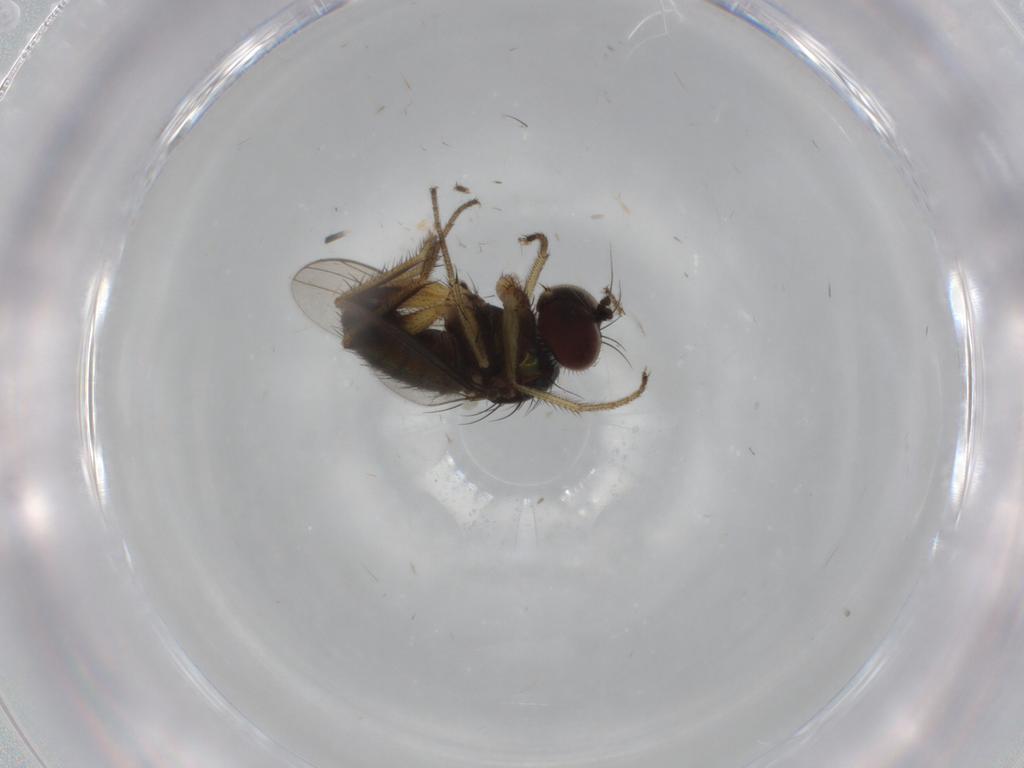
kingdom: Animalia
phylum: Arthropoda
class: Insecta
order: Diptera
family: Dolichopodidae
